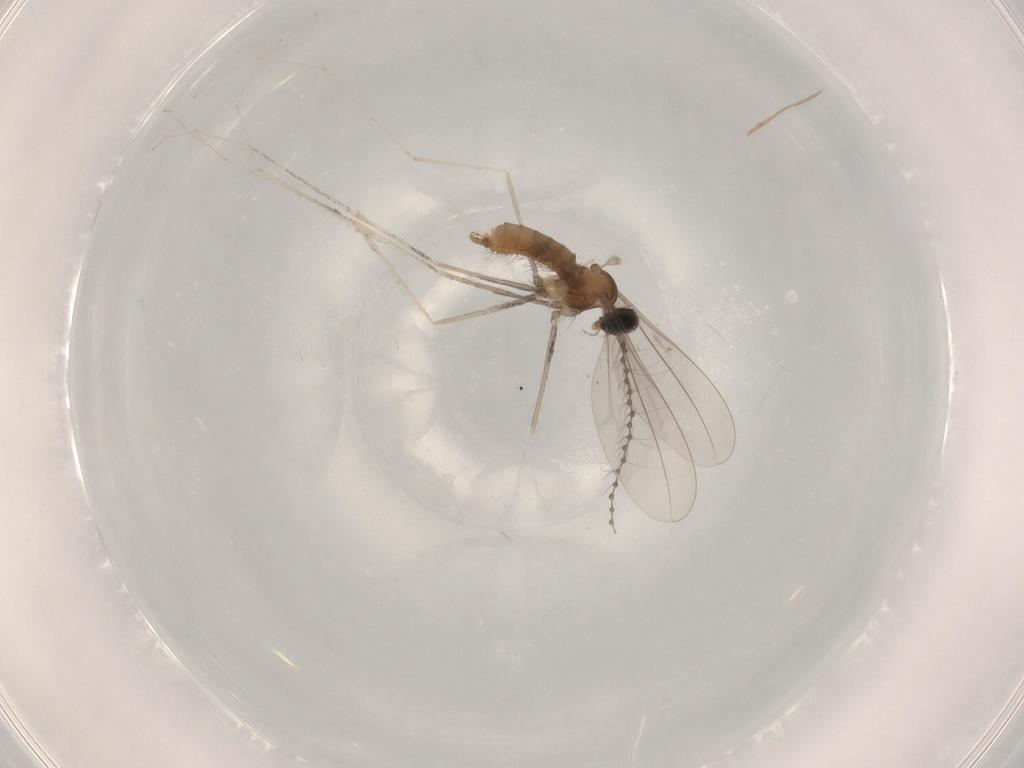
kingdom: Animalia
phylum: Arthropoda
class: Insecta
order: Diptera
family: Cecidomyiidae
